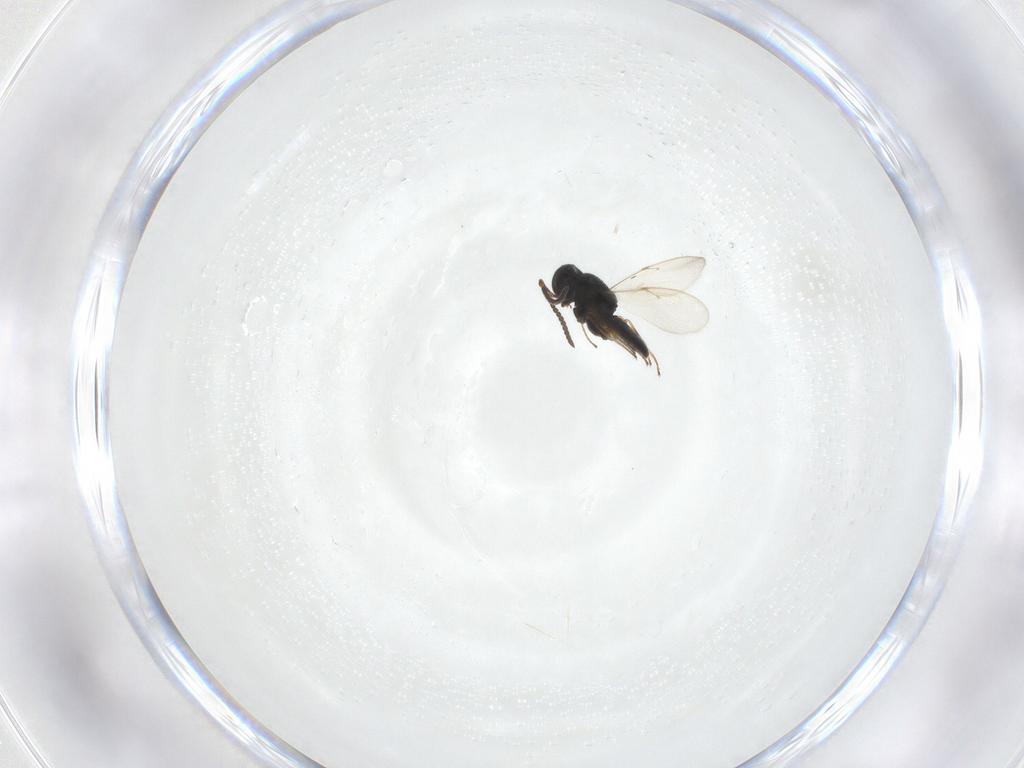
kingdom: Animalia
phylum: Arthropoda
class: Insecta
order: Hymenoptera
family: Scelionidae
